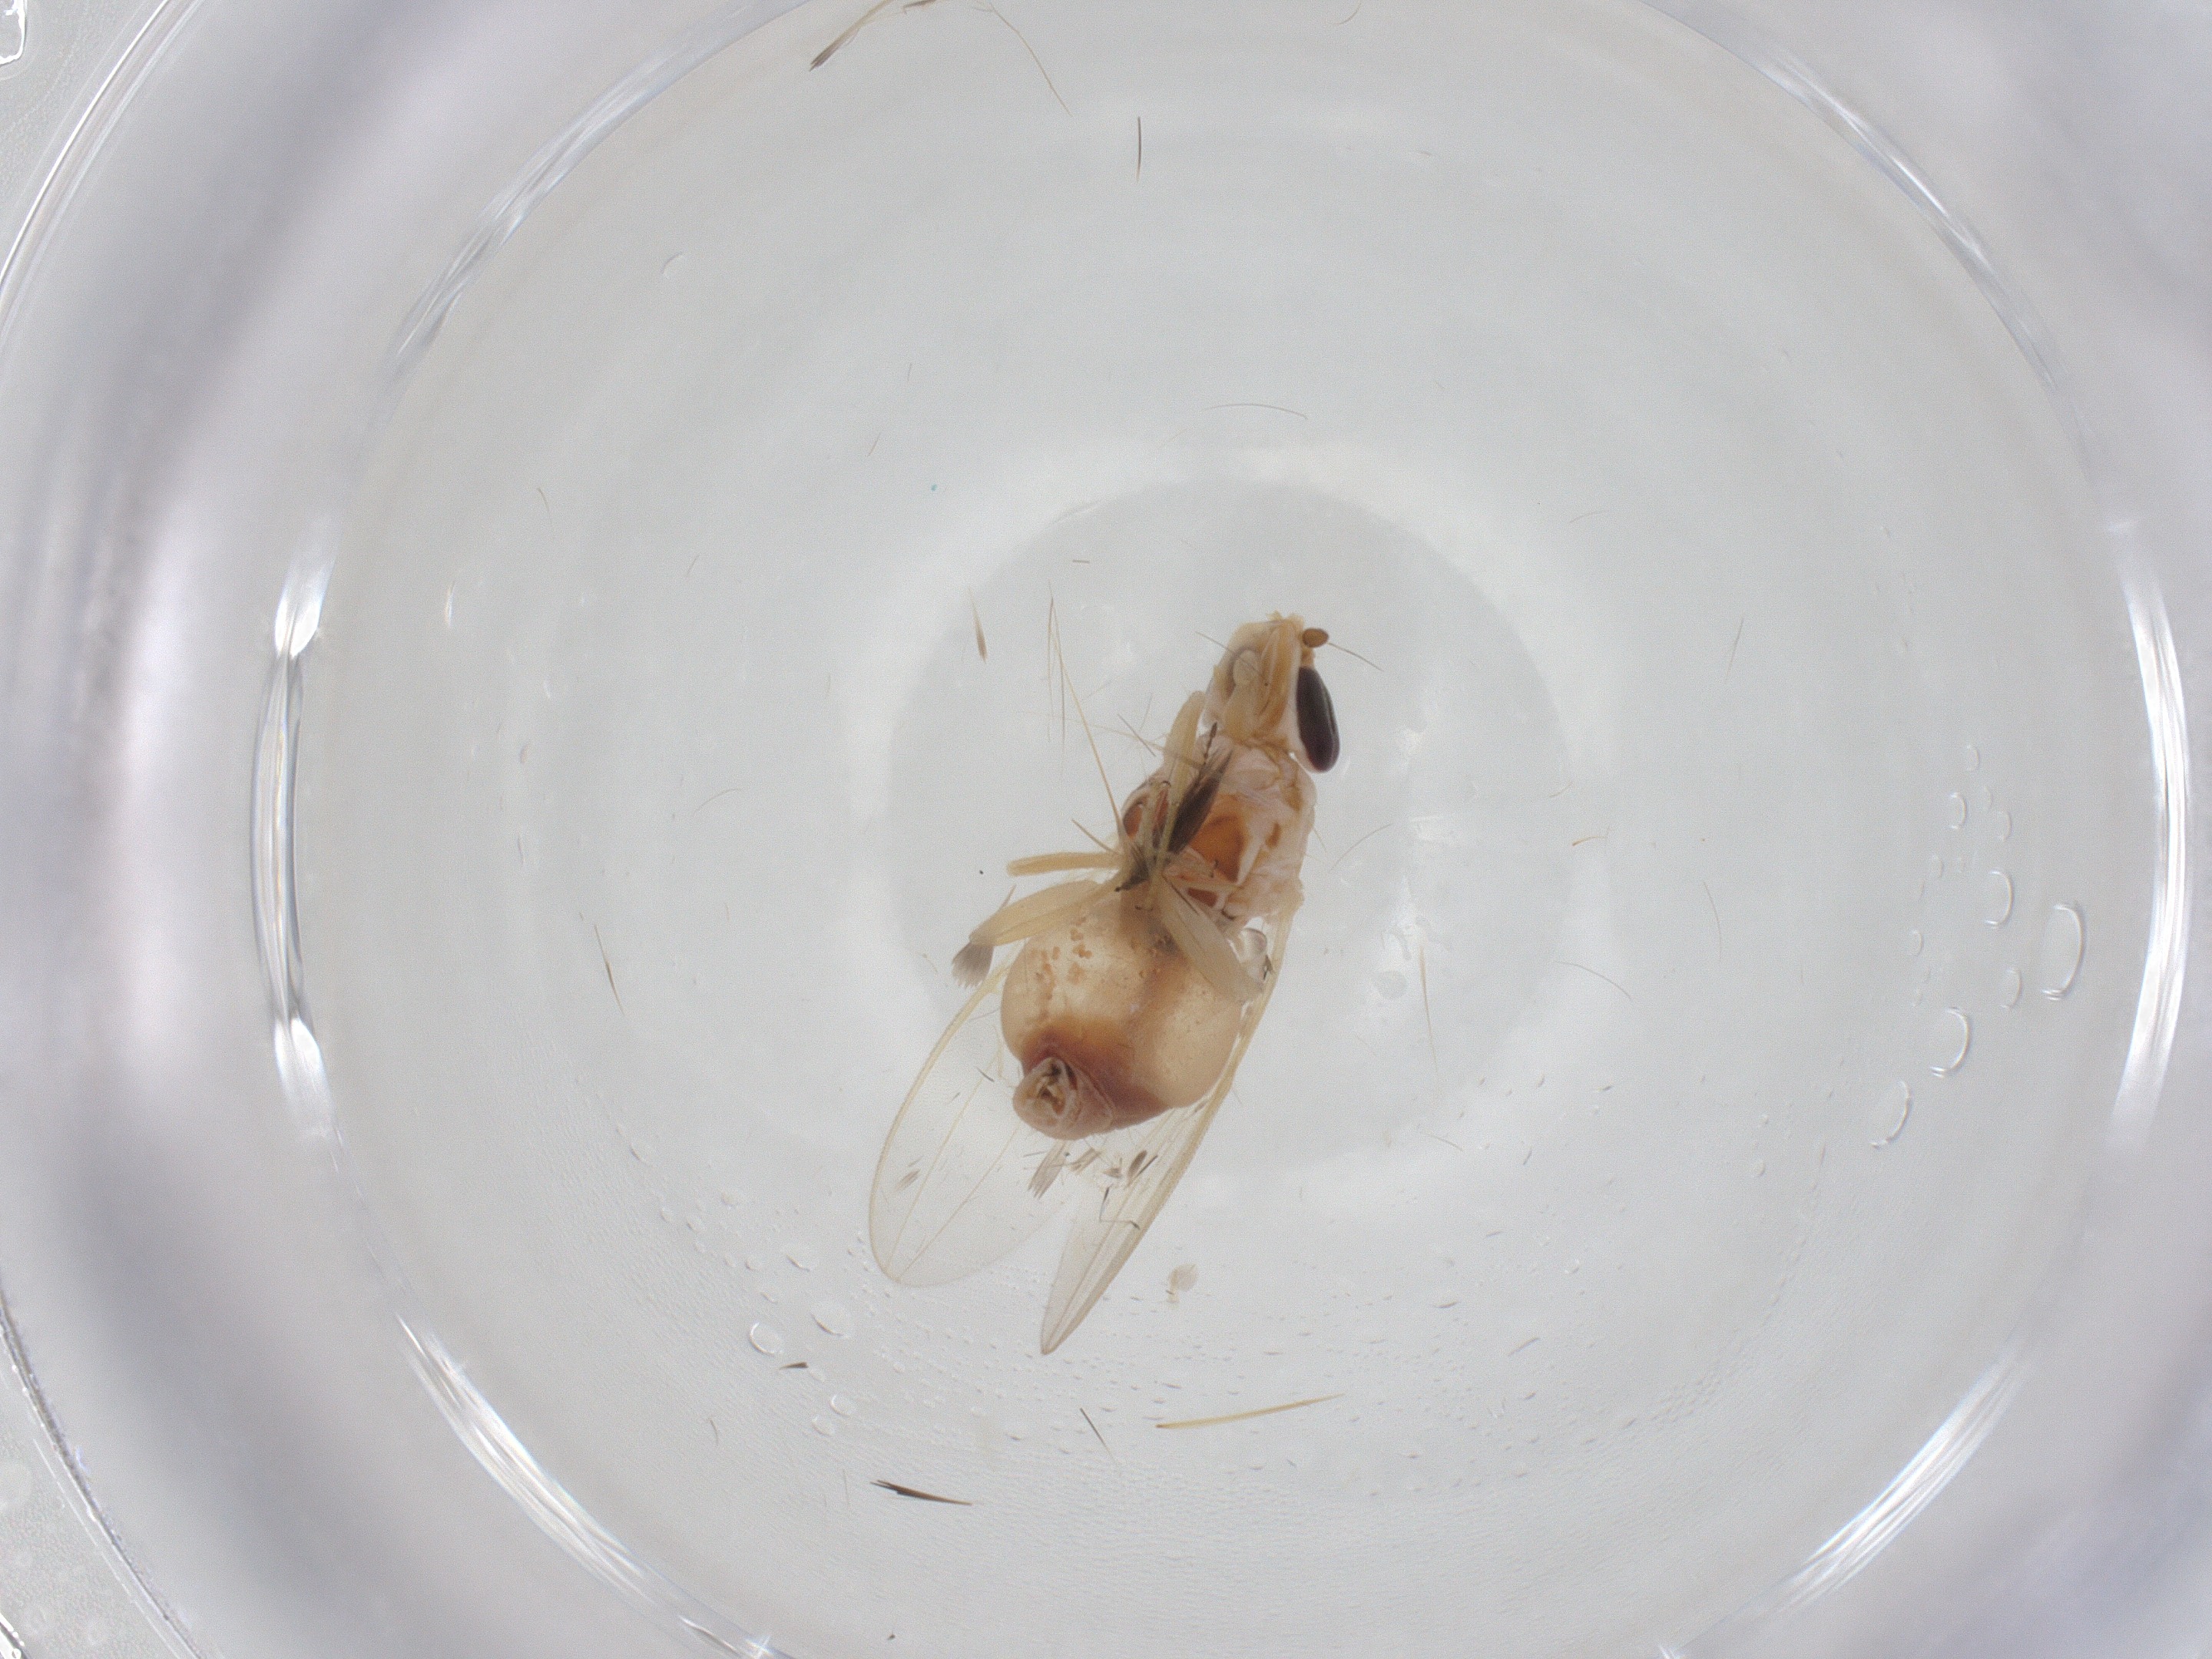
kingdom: Animalia
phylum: Arthropoda
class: Insecta
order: Diptera
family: Chloropidae
